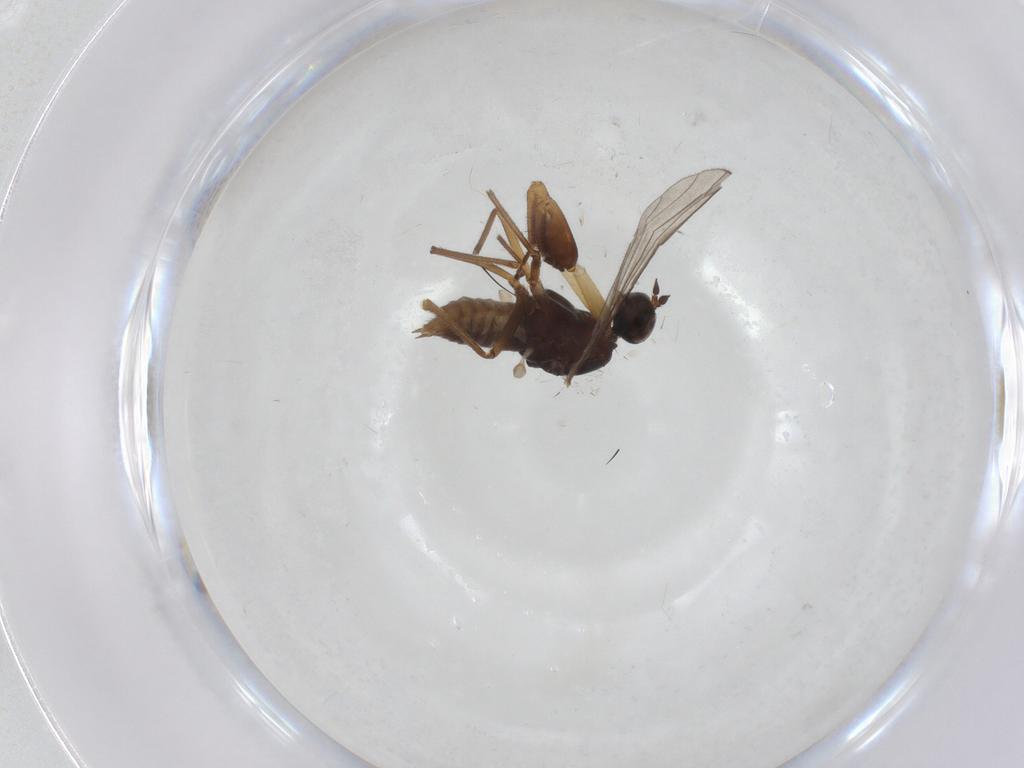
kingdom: Animalia
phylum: Arthropoda
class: Insecta
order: Diptera
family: Empididae
